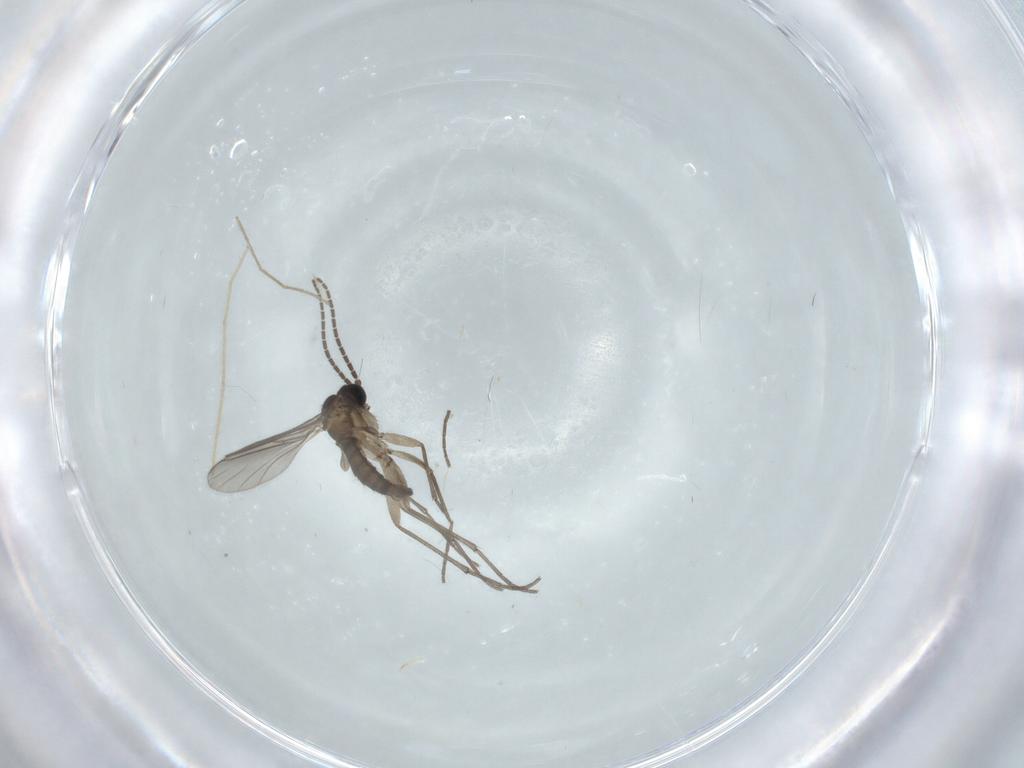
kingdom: Animalia
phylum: Arthropoda
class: Insecta
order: Diptera
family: Sciaridae
